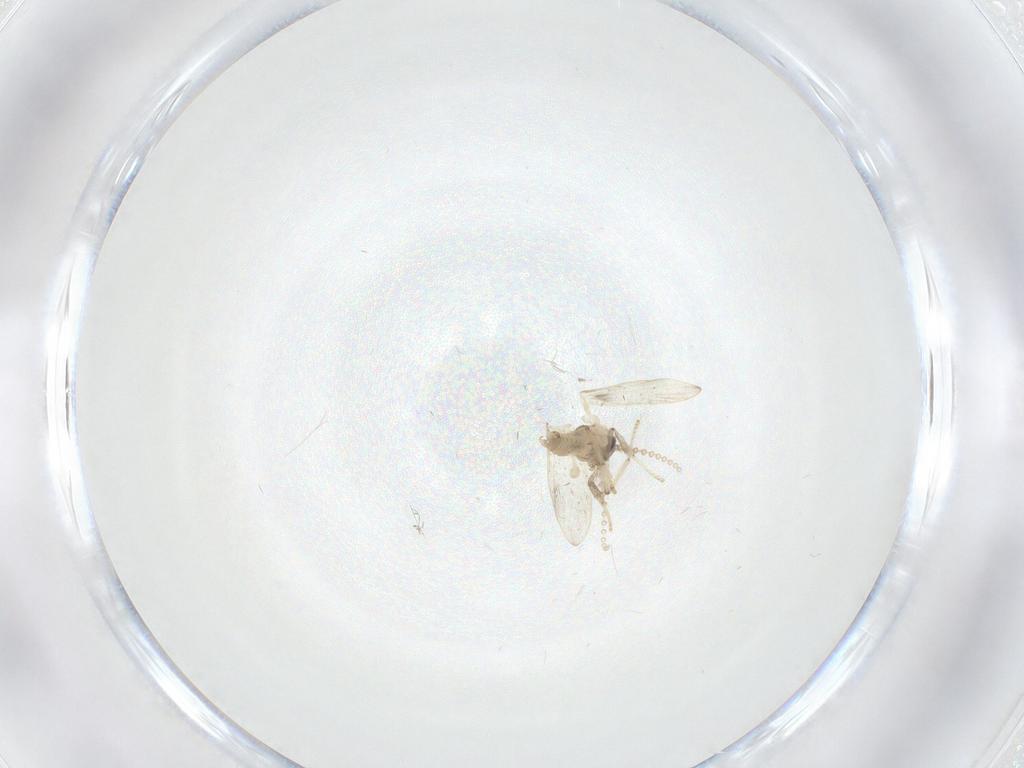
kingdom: Animalia
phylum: Arthropoda
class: Insecta
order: Diptera
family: Psychodidae
